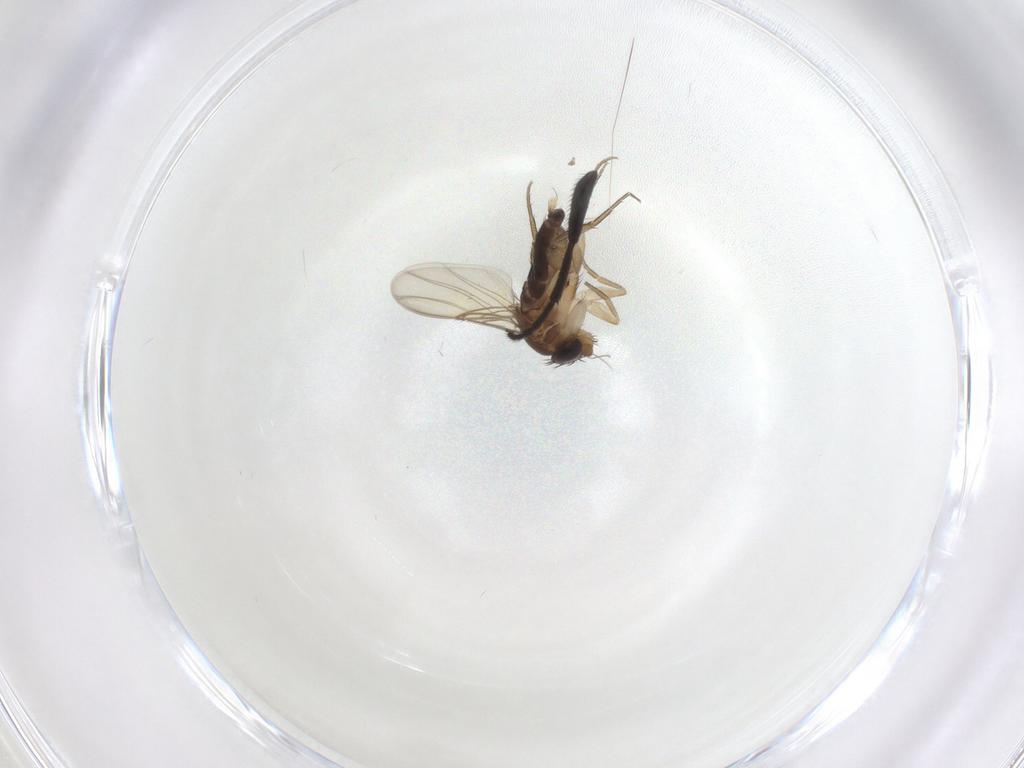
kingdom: Animalia
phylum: Arthropoda
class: Insecta
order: Diptera
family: Phoridae
